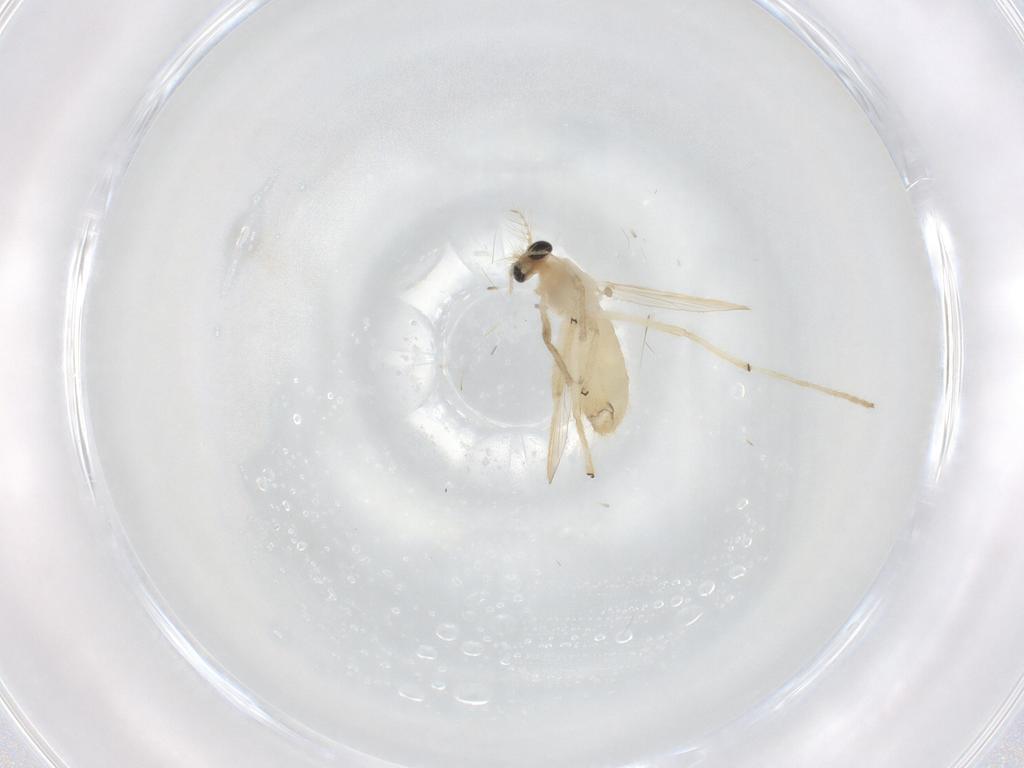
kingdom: Animalia
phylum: Arthropoda
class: Insecta
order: Diptera
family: Chironomidae
